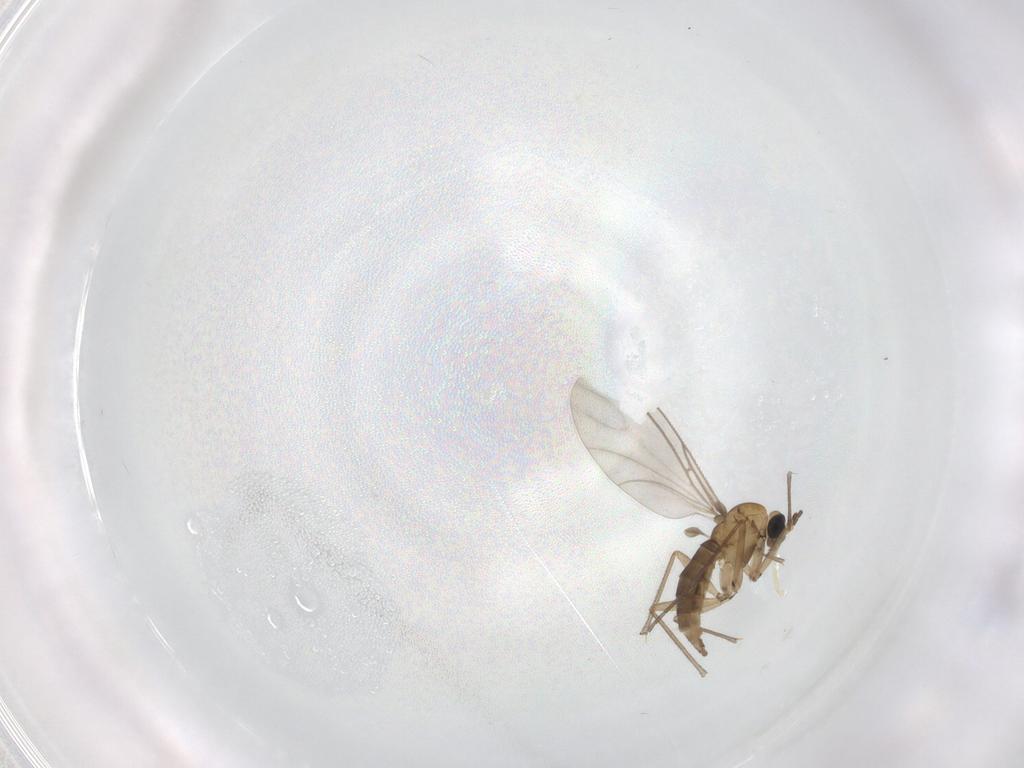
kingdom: Animalia
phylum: Arthropoda
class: Insecta
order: Diptera
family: Sciaridae
